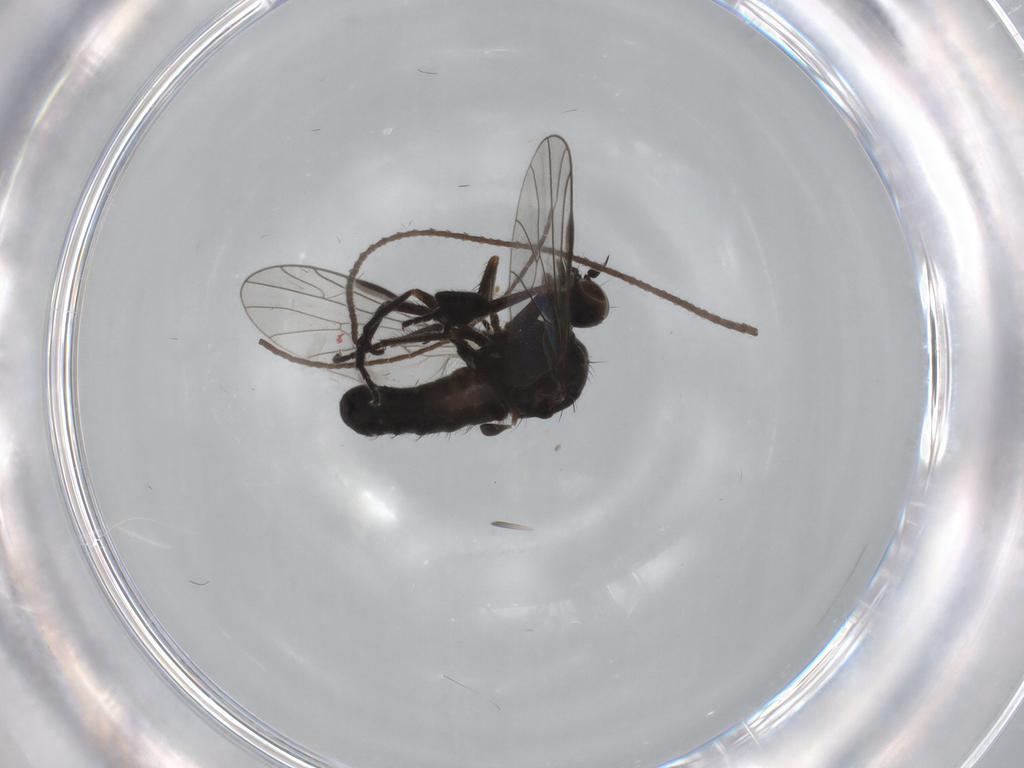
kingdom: Animalia
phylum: Arthropoda
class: Insecta
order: Diptera
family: Empididae
